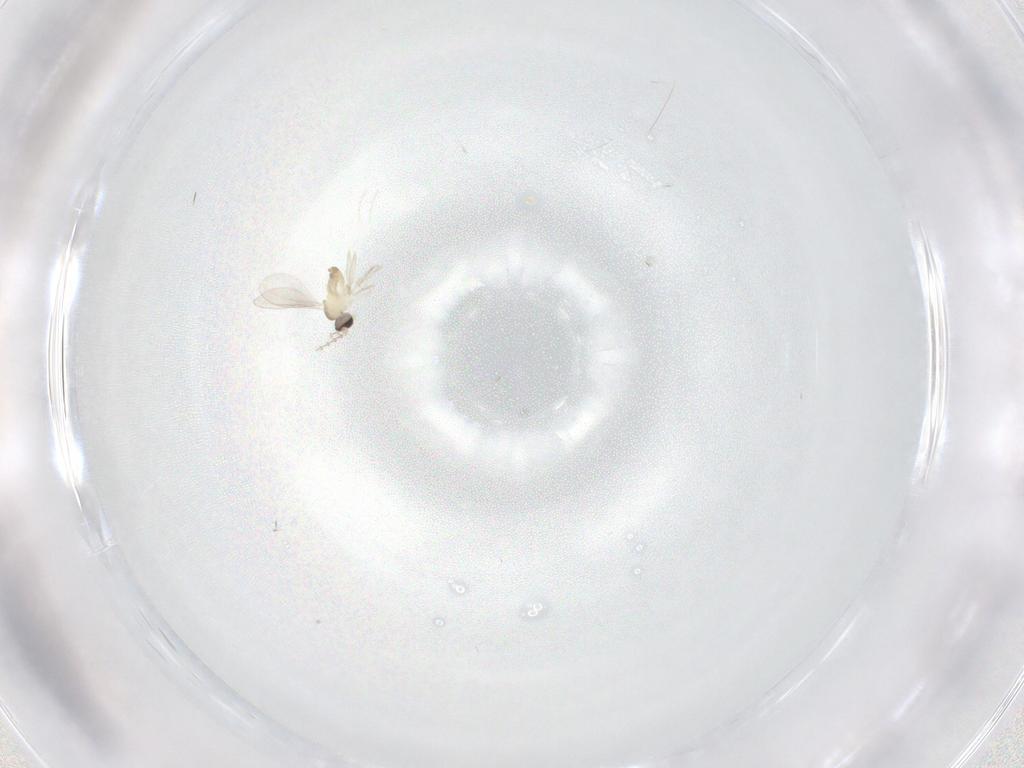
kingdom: Animalia
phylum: Arthropoda
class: Insecta
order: Diptera
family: Cecidomyiidae
